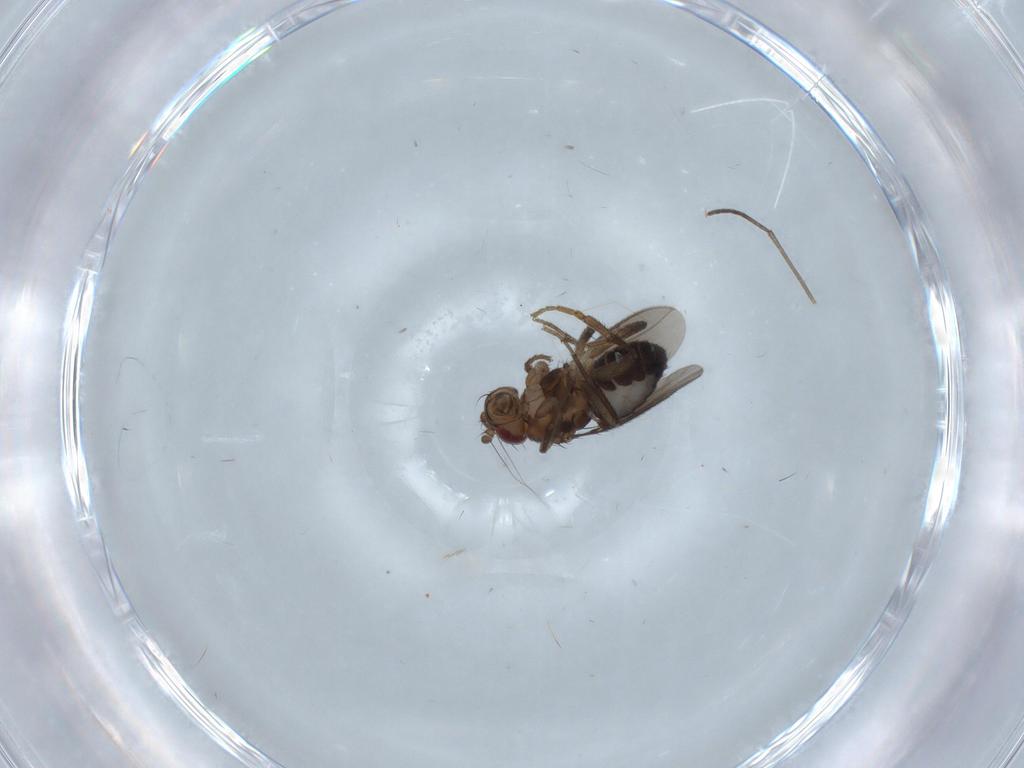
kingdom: Animalia
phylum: Arthropoda
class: Insecta
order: Diptera
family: Sphaeroceridae
